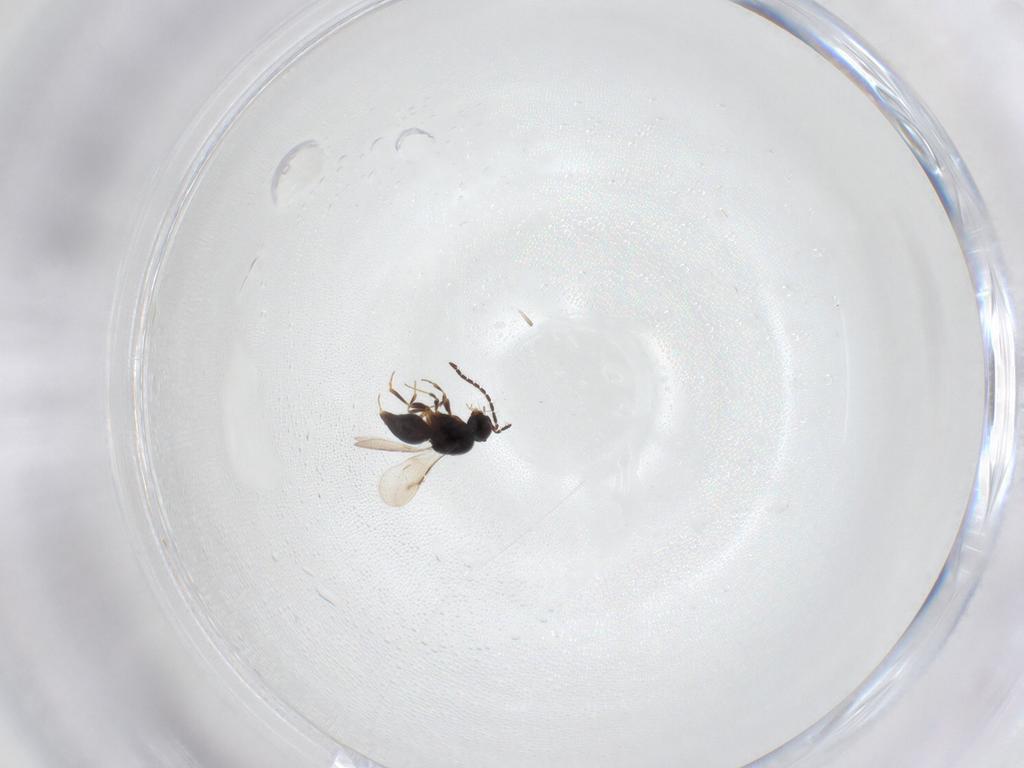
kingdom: Animalia
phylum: Arthropoda
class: Insecta
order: Hymenoptera
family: Ceraphronidae
